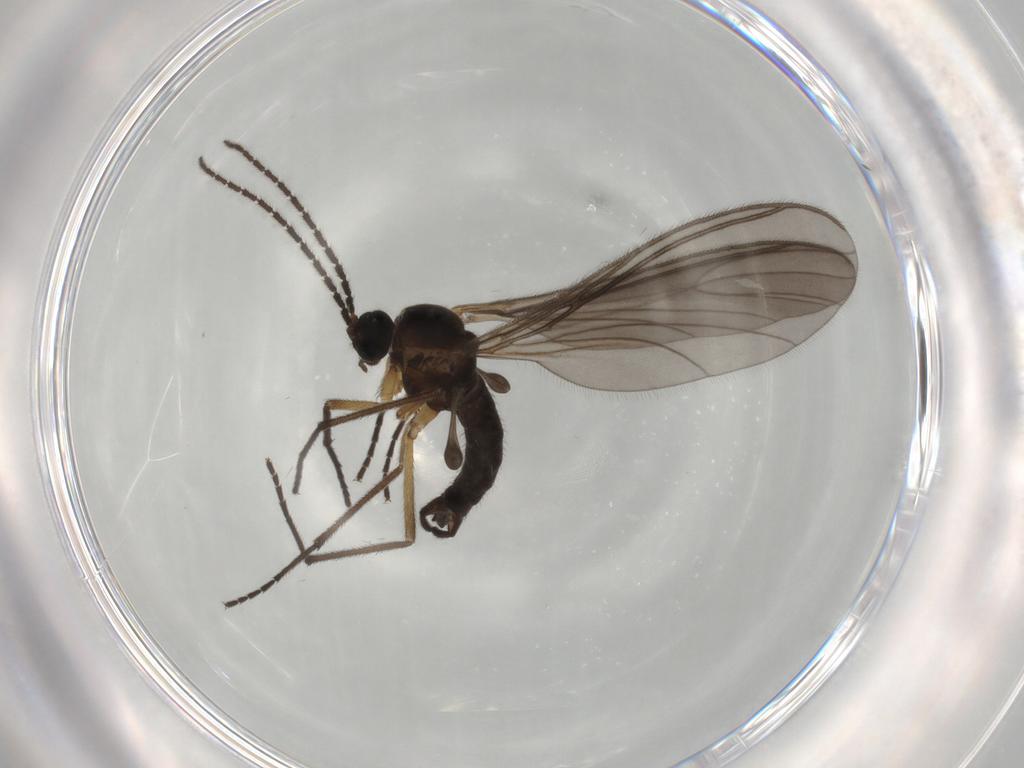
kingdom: Animalia
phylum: Arthropoda
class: Insecta
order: Diptera
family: Sciaridae
